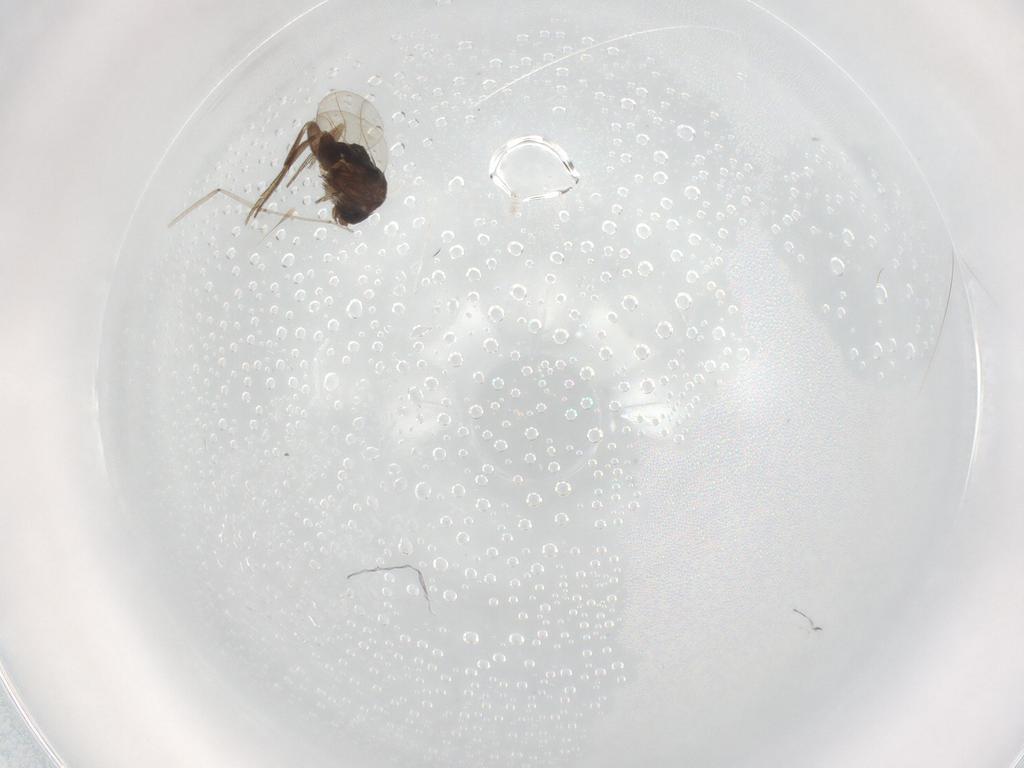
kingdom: Animalia
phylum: Arthropoda
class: Insecta
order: Diptera
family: Phoridae
